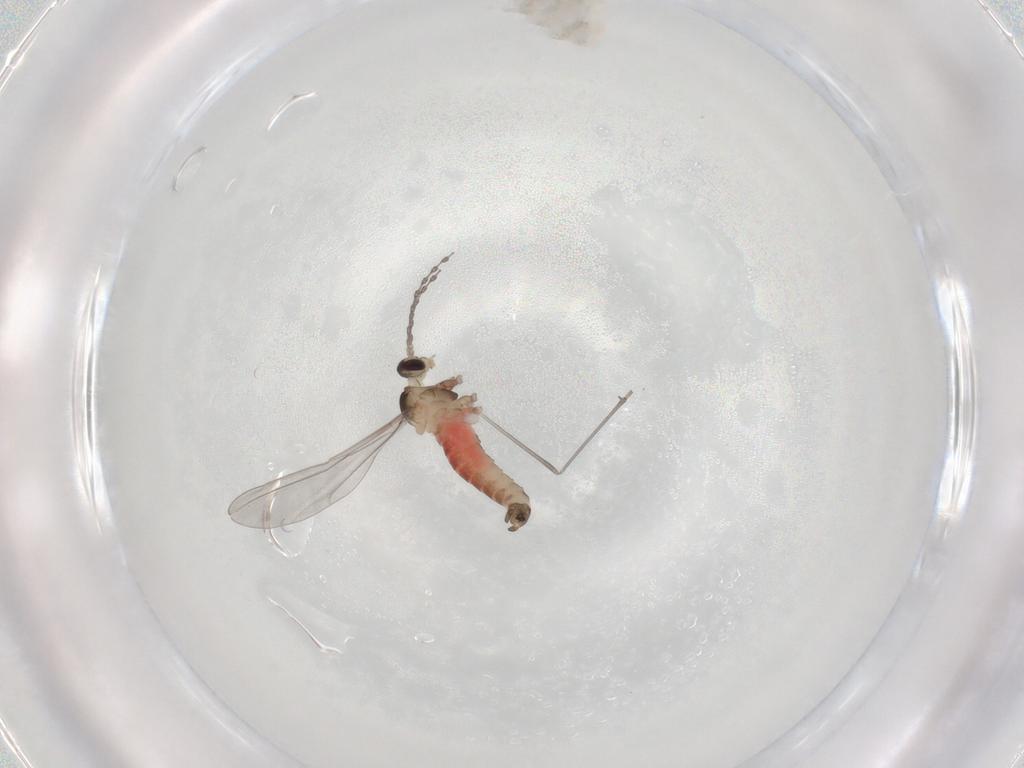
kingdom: Animalia
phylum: Arthropoda
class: Insecta
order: Diptera
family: Cecidomyiidae
